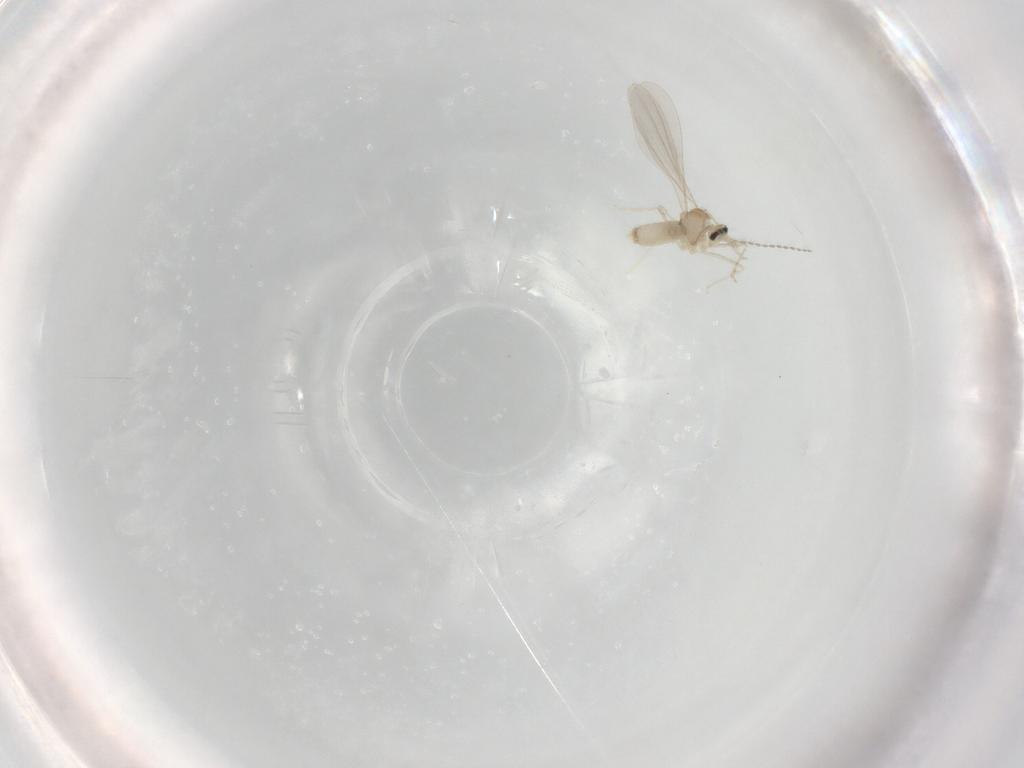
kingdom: Animalia
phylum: Arthropoda
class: Insecta
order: Diptera
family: Cecidomyiidae
